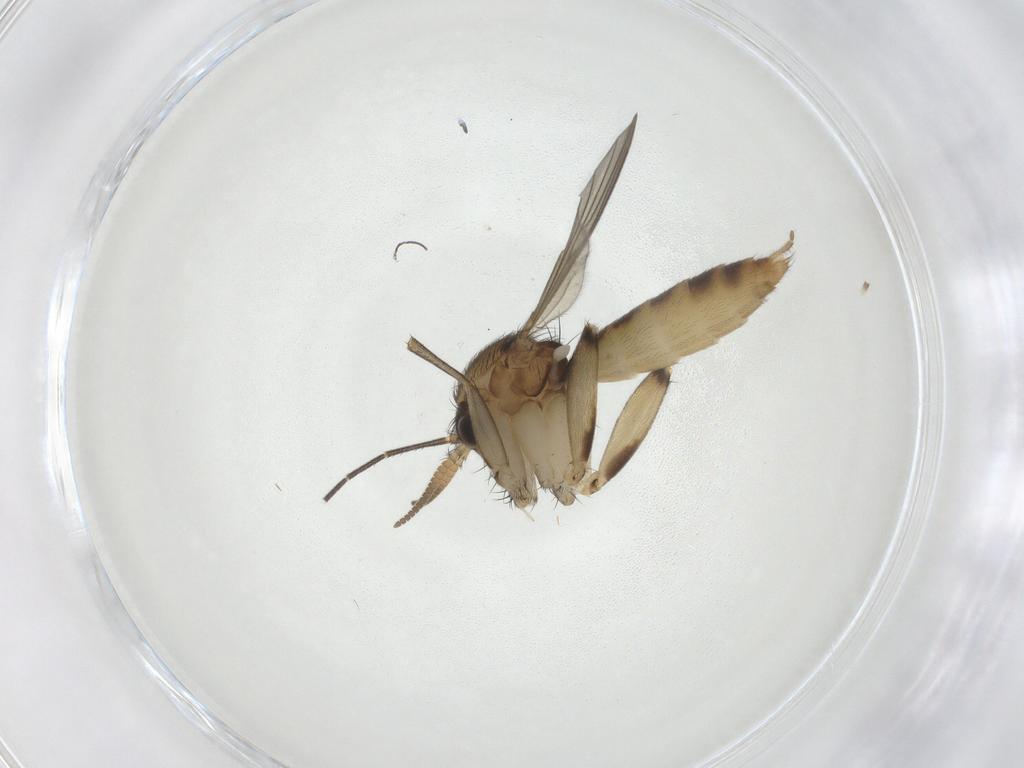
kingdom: Animalia
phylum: Arthropoda
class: Insecta
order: Diptera
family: Mycetophilidae
